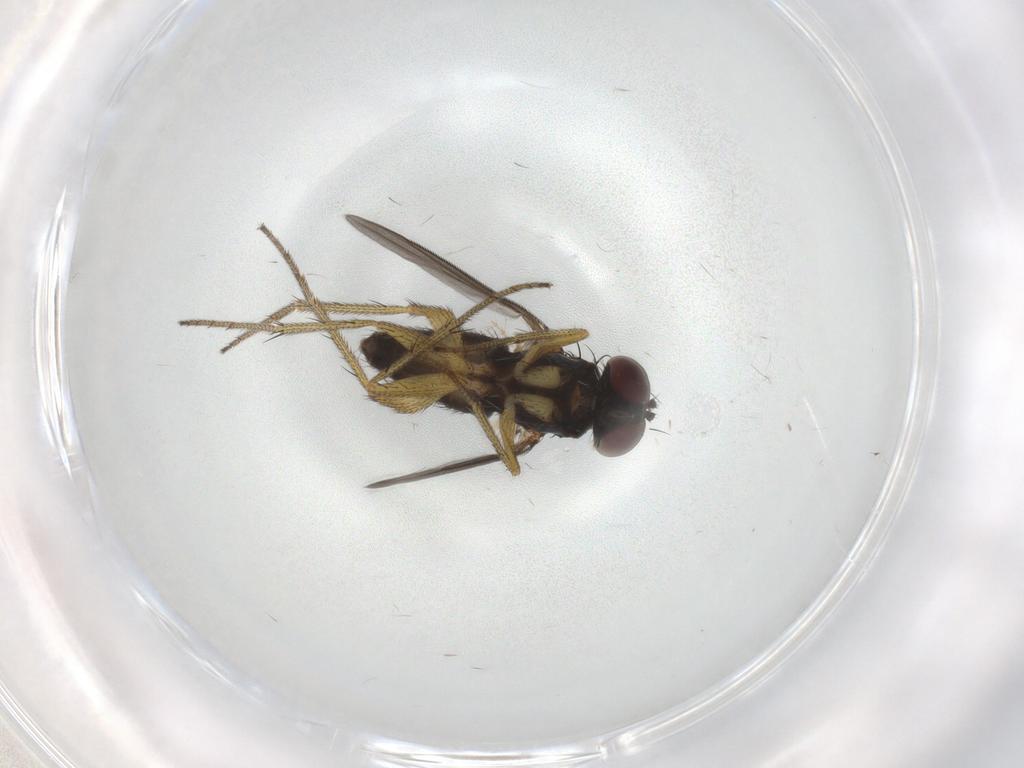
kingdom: Animalia
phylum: Arthropoda
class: Insecta
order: Diptera
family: Dolichopodidae
